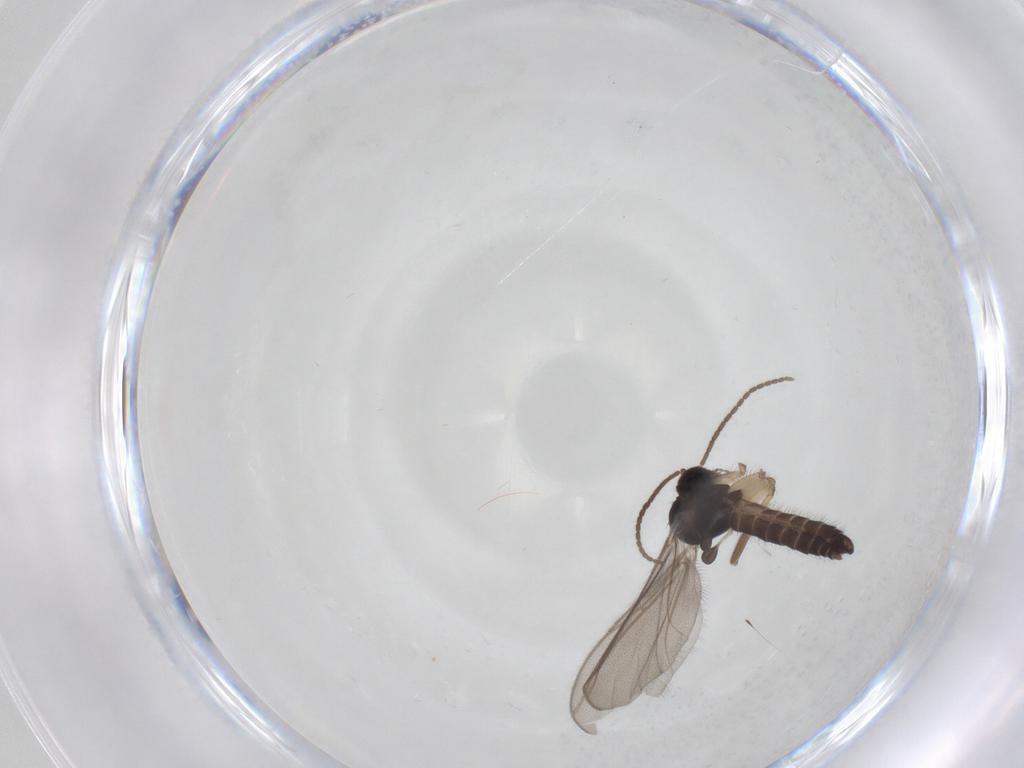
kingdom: Animalia
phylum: Arthropoda
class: Insecta
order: Diptera
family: Mycetophilidae
